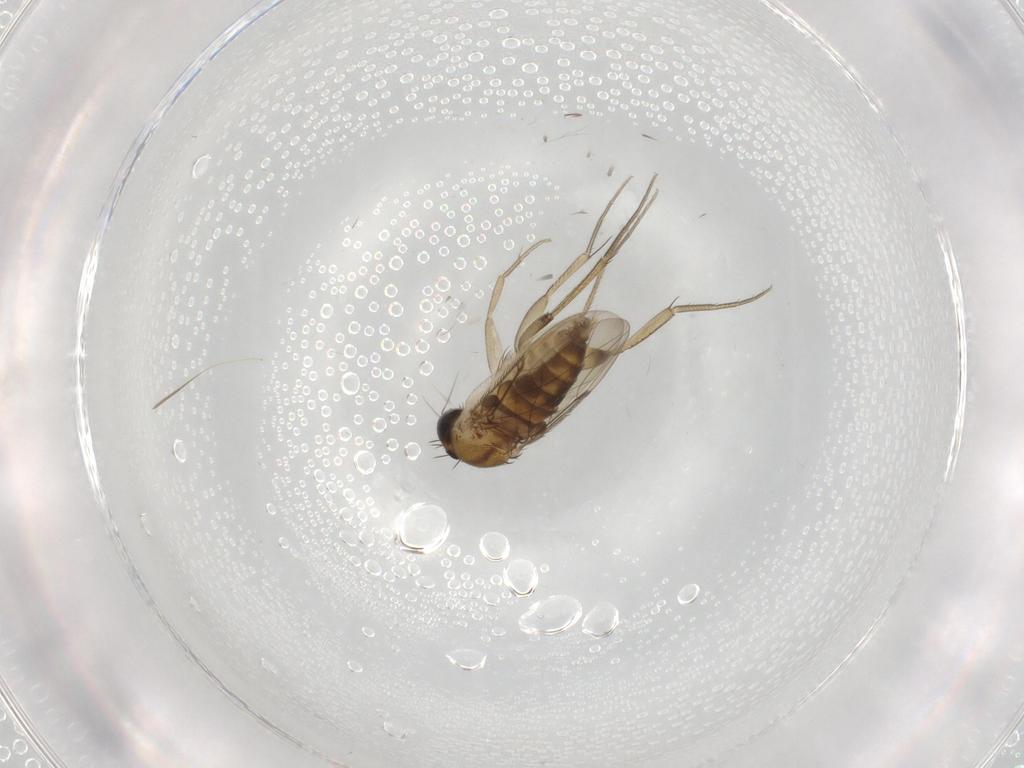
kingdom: Animalia
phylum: Arthropoda
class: Insecta
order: Diptera
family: Phoridae
